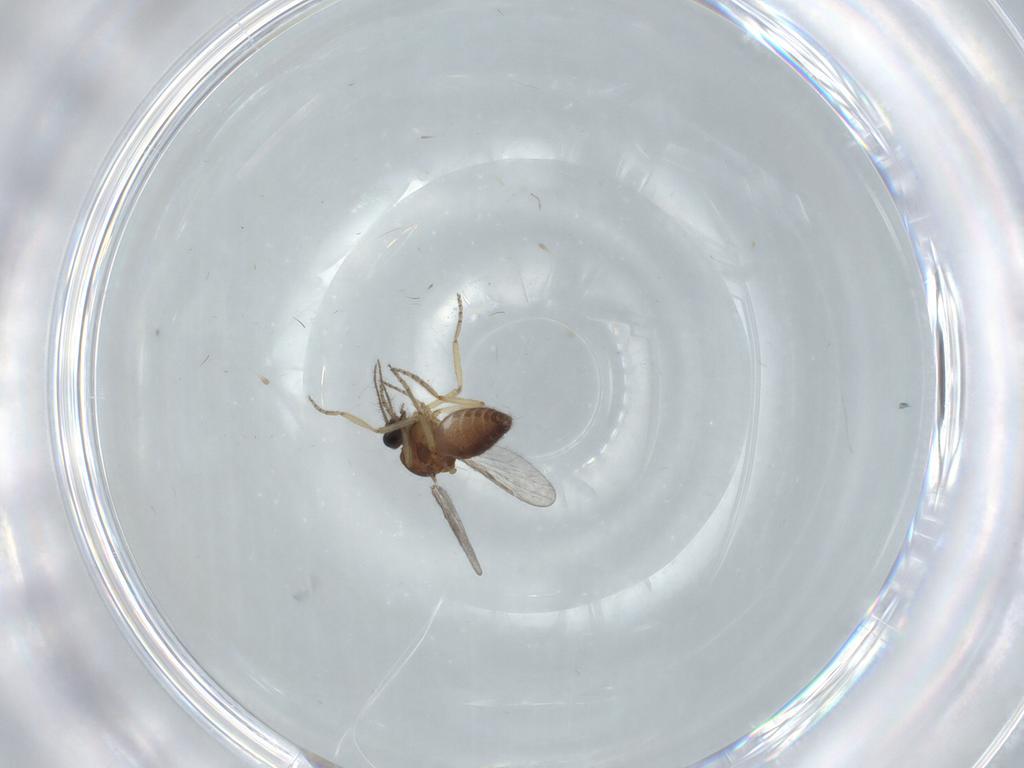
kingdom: Animalia
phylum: Arthropoda
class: Insecta
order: Diptera
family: Ceratopogonidae
